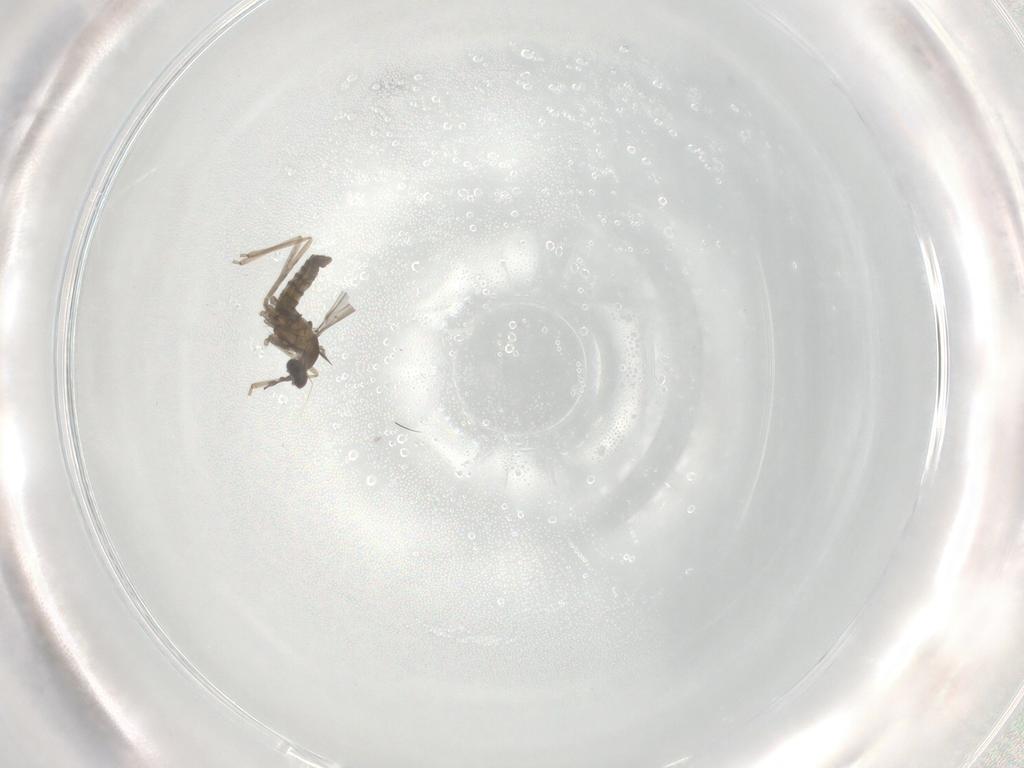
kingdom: Animalia
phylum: Arthropoda
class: Insecta
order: Diptera
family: Cecidomyiidae
